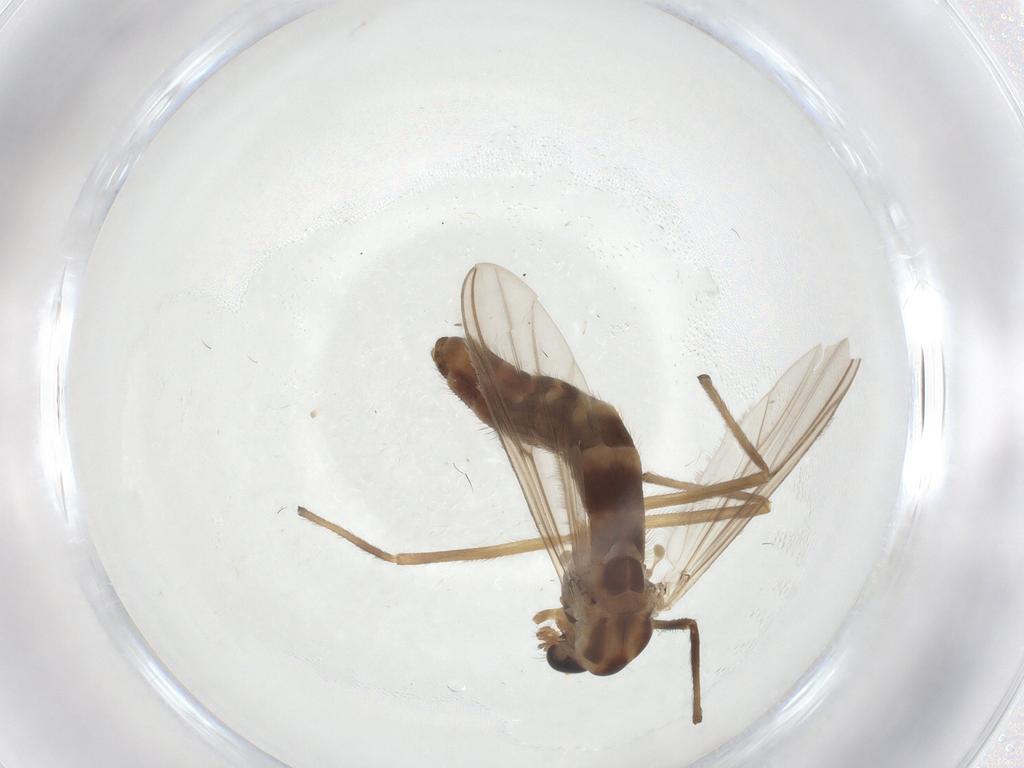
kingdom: Animalia
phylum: Arthropoda
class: Insecta
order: Diptera
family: Chironomidae
